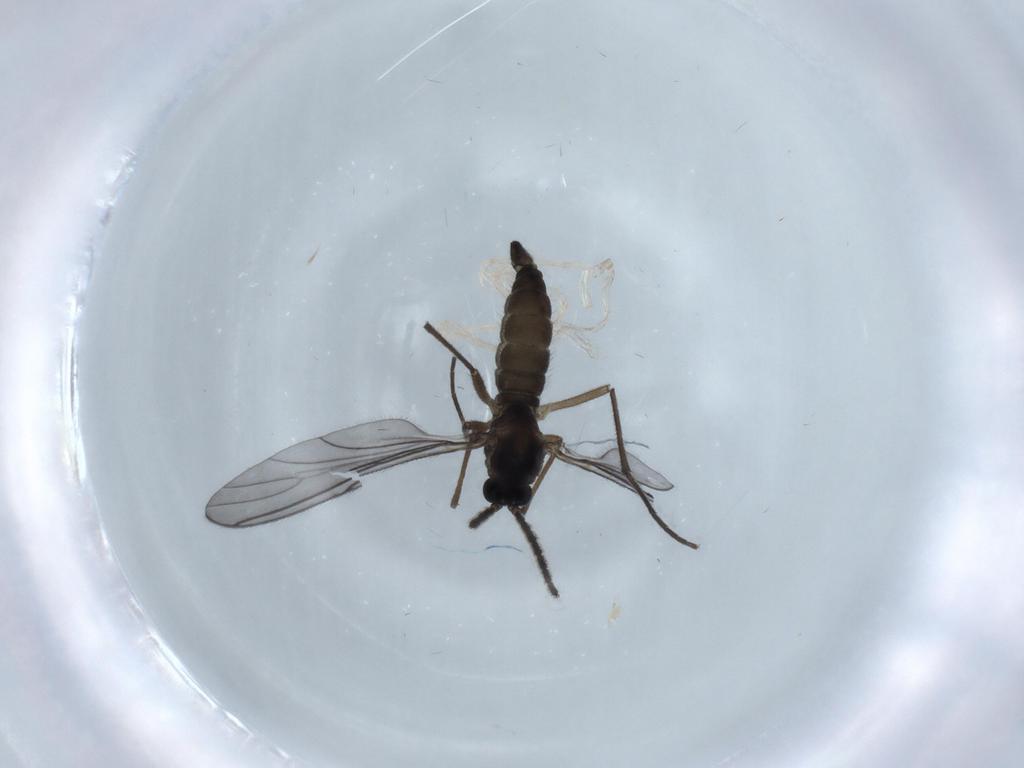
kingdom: Animalia
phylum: Arthropoda
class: Insecta
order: Diptera
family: Sciaridae
